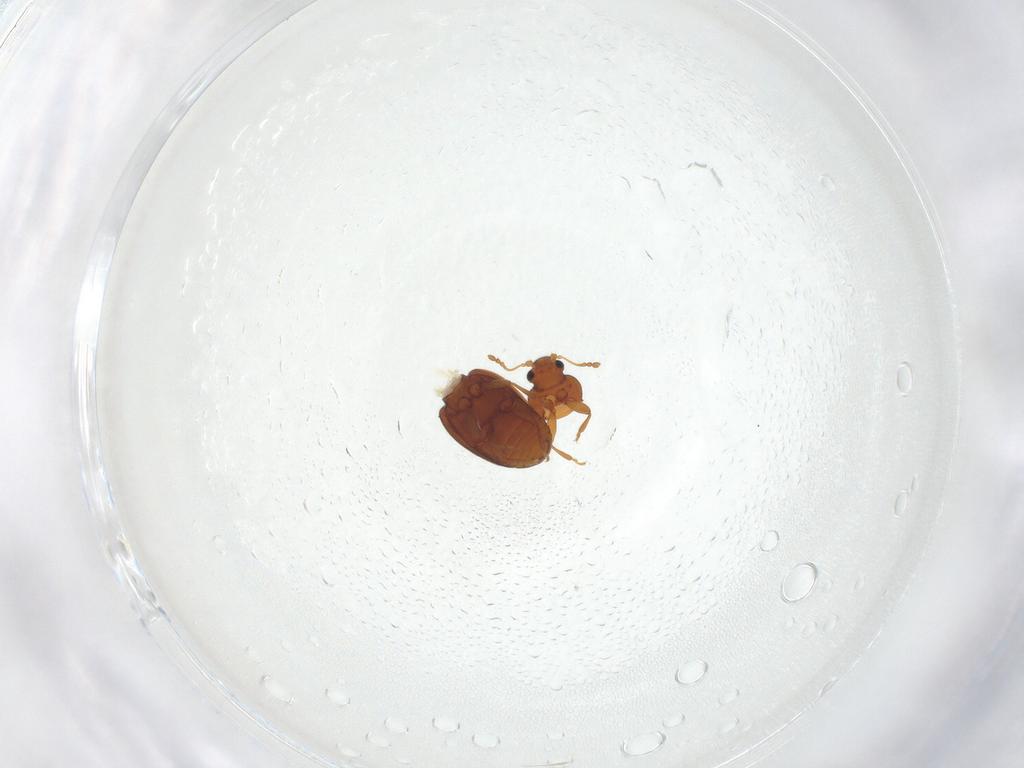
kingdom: Animalia
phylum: Arthropoda
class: Insecta
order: Coleoptera
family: Latridiidae
